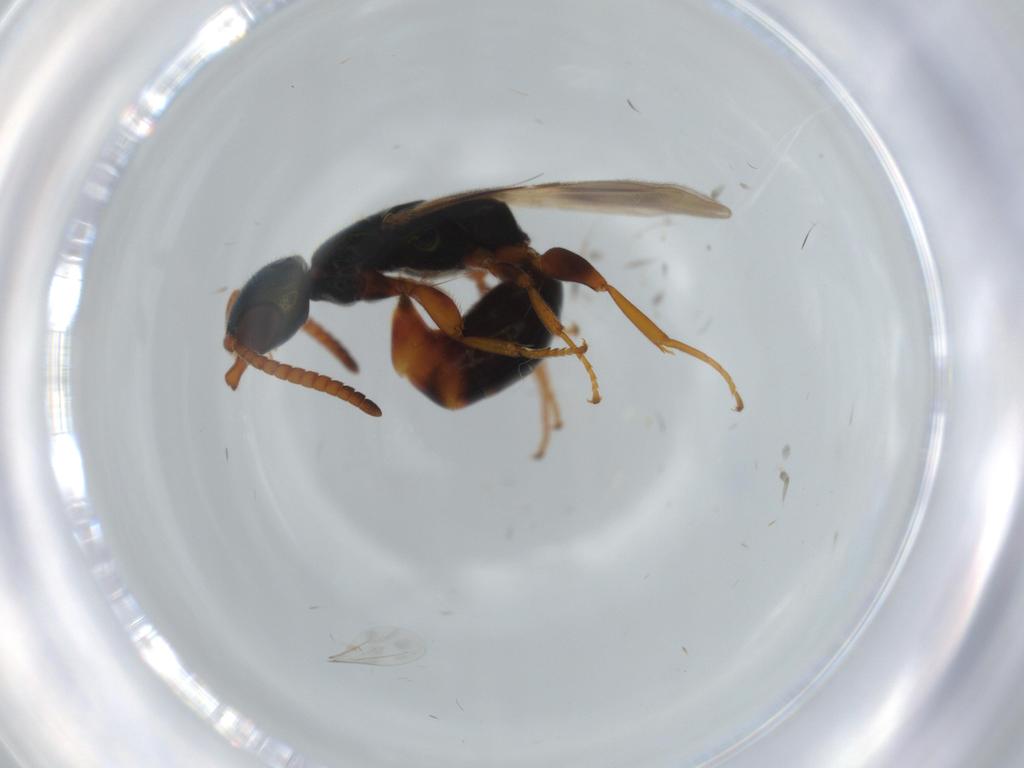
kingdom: Animalia
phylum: Arthropoda
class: Insecta
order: Hymenoptera
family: Bethylidae
